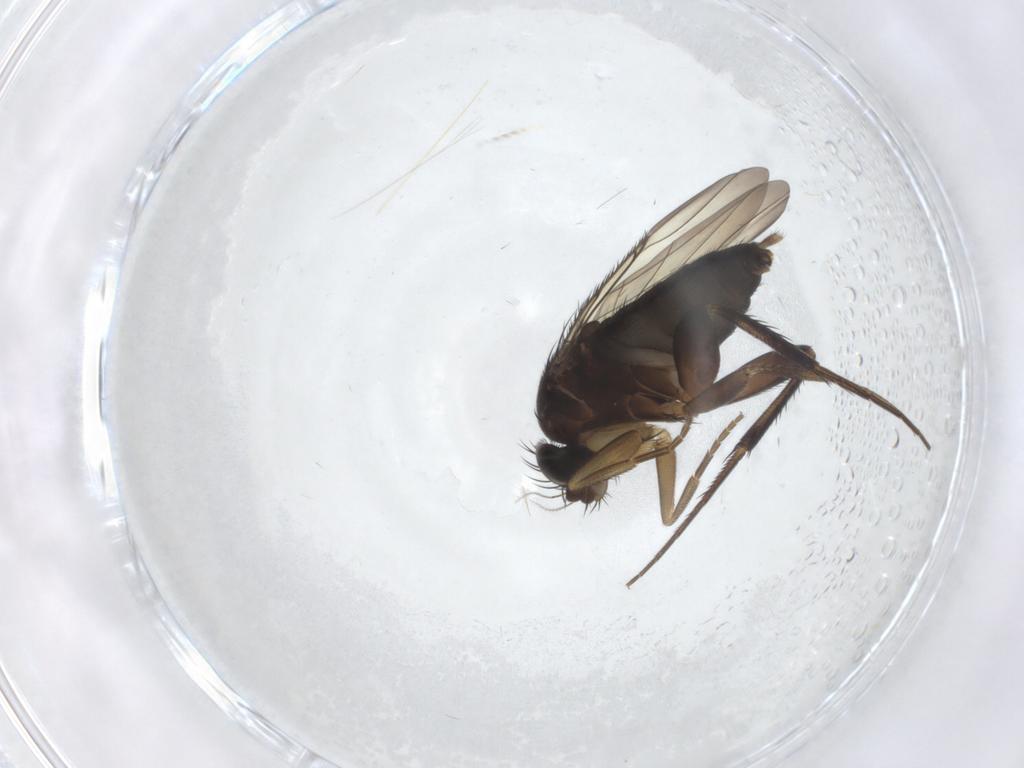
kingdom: Animalia
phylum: Arthropoda
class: Insecta
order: Diptera
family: Phoridae
